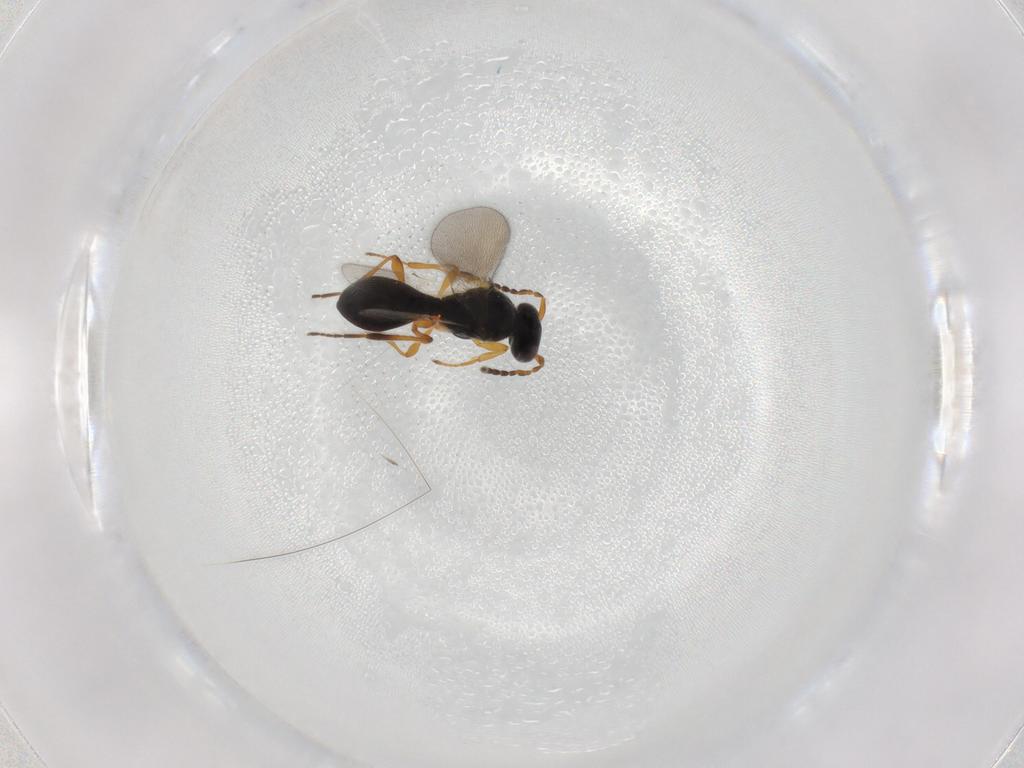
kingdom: Animalia
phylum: Arthropoda
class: Insecta
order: Hymenoptera
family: Platygastridae
